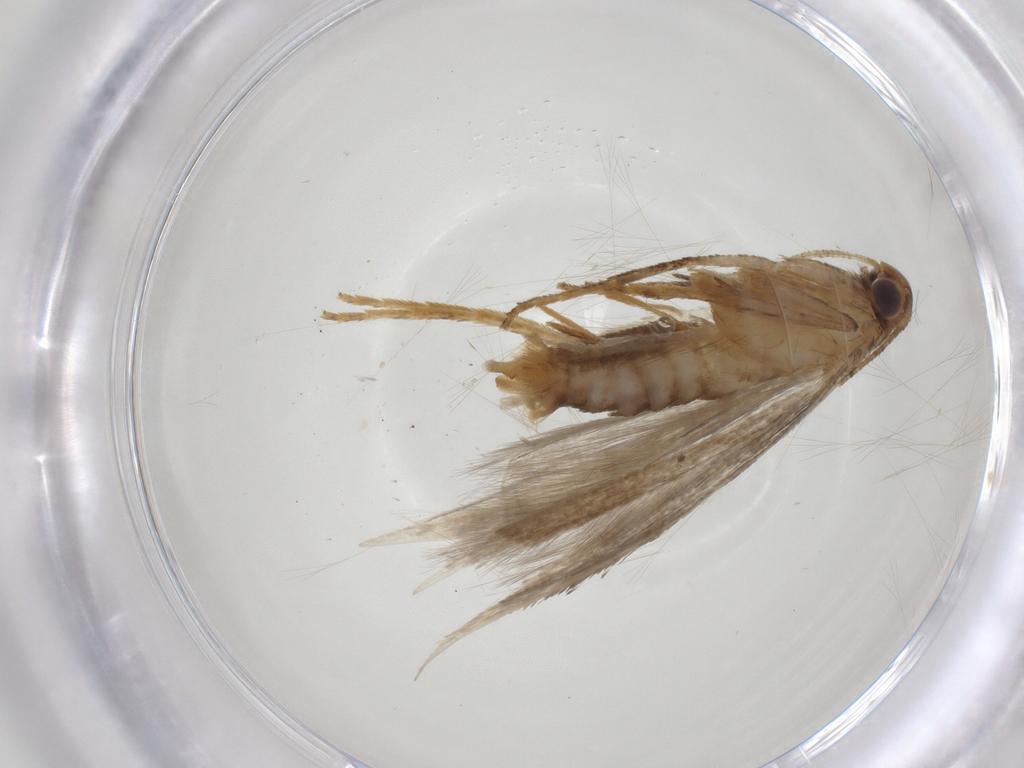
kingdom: Animalia
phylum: Arthropoda
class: Insecta
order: Lepidoptera
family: Gelechiidae
